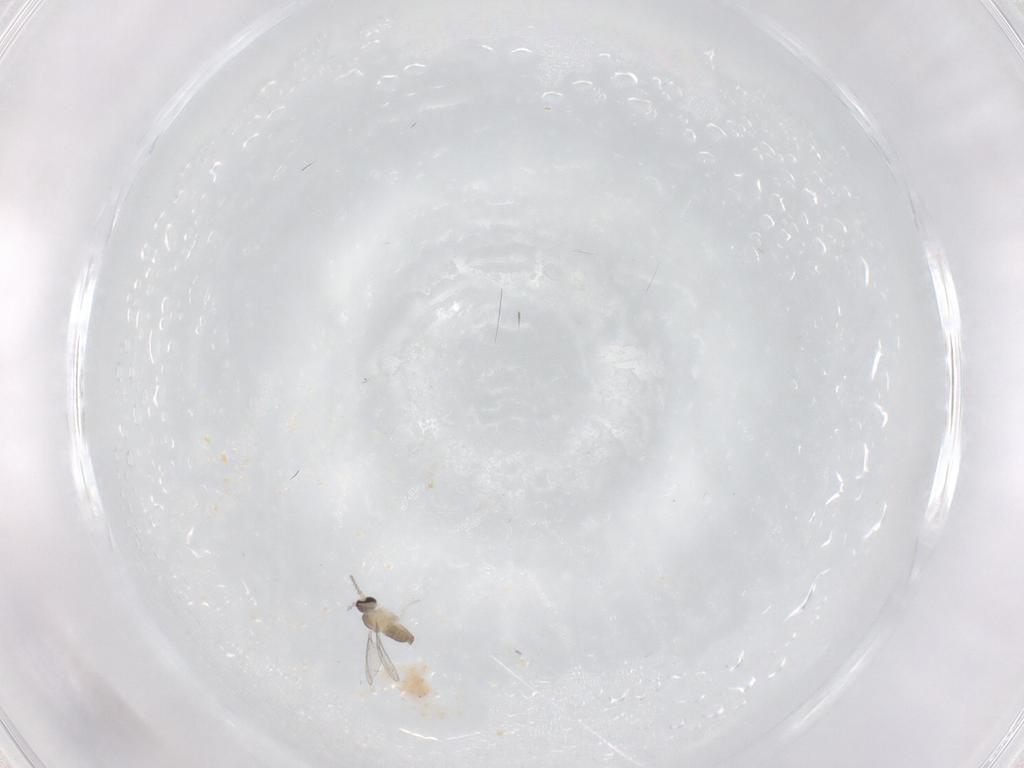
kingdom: Animalia
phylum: Arthropoda
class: Insecta
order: Diptera
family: Cecidomyiidae
